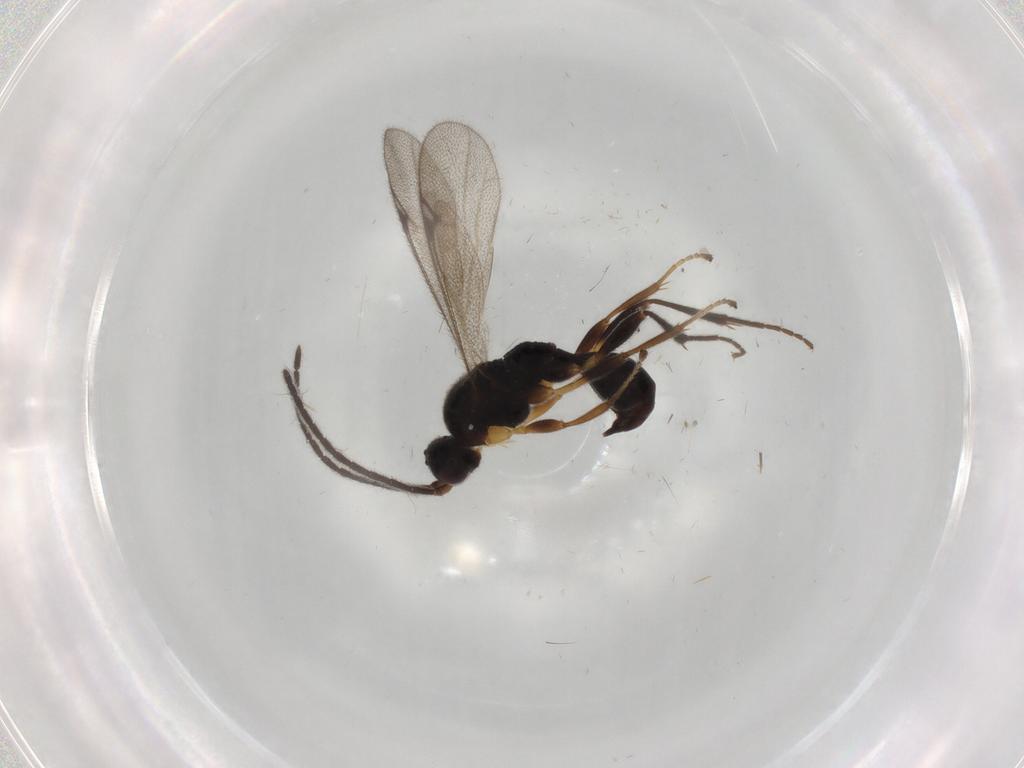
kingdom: Animalia
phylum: Arthropoda
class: Insecta
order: Hymenoptera
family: Proctotrupidae
